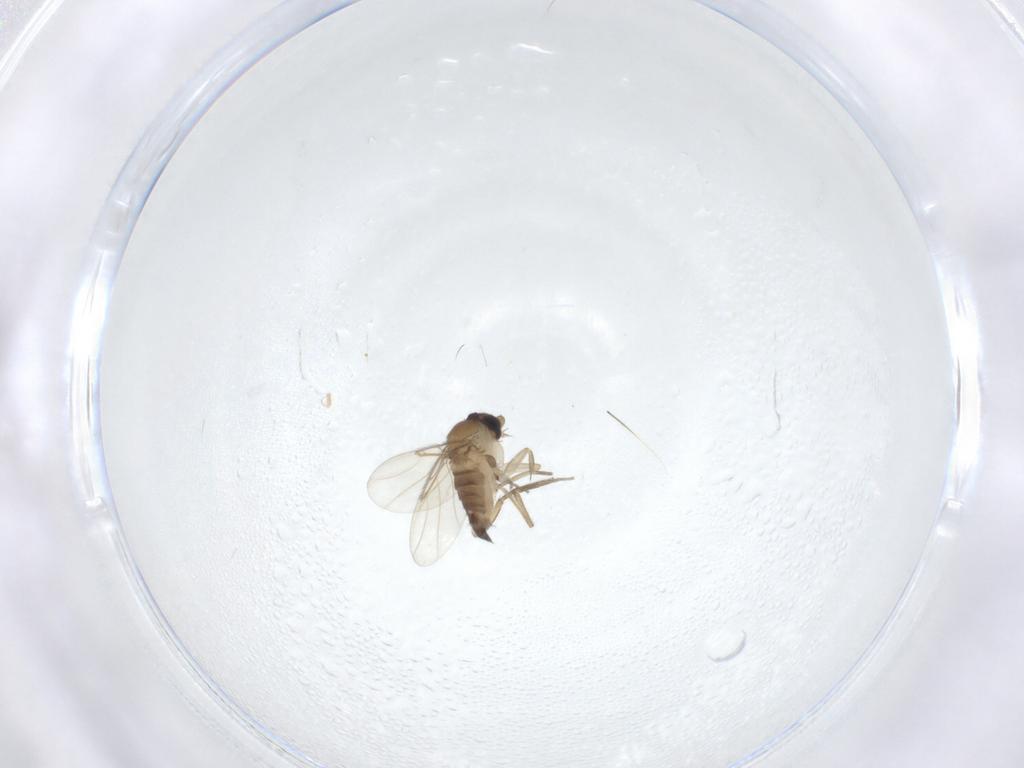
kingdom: Animalia
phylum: Arthropoda
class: Insecta
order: Diptera
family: Phoridae
